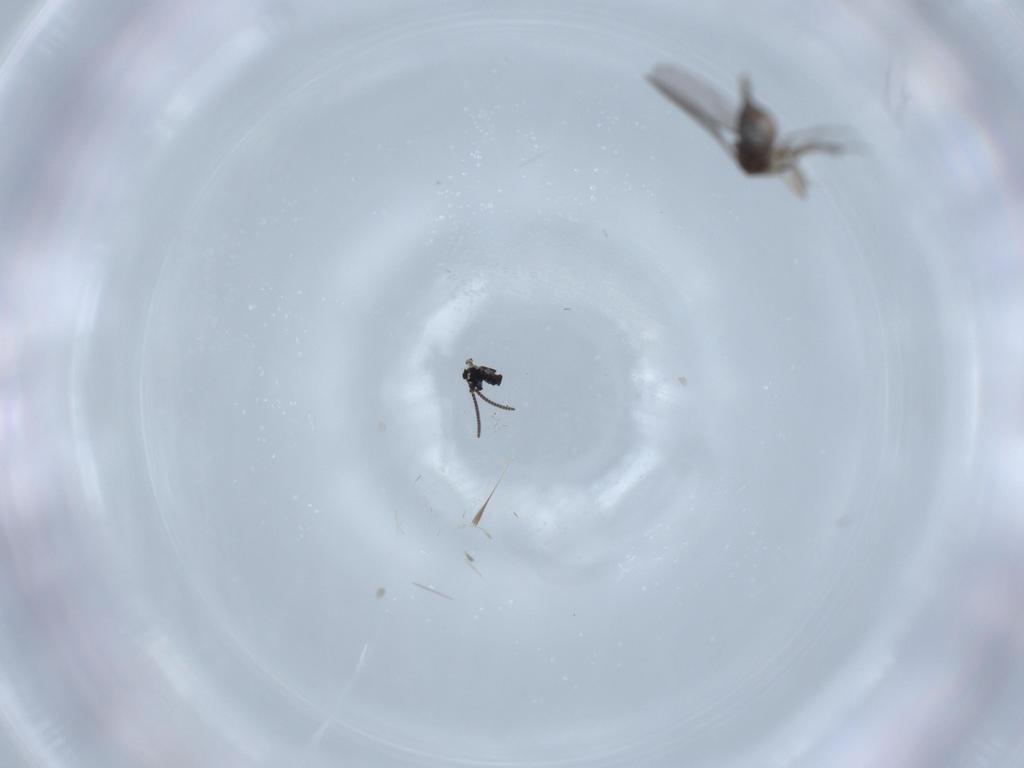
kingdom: Animalia
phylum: Arthropoda
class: Insecta
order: Diptera
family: Sciaridae
